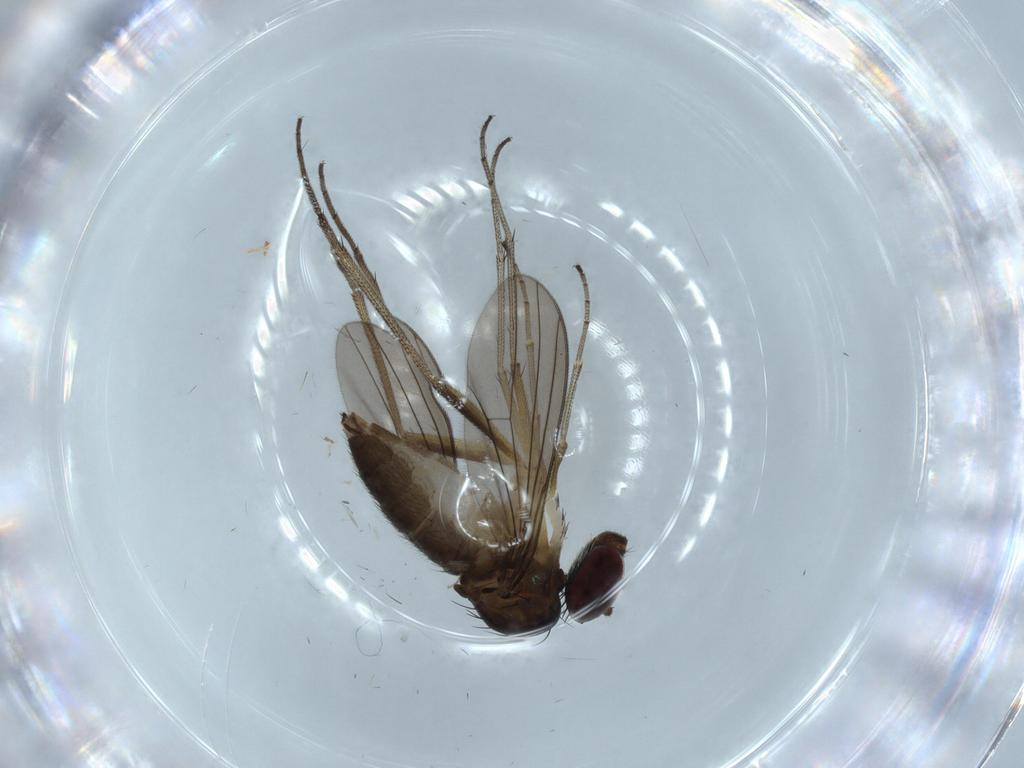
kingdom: Animalia
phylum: Arthropoda
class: Insecta
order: Diptera
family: Dolichopodidae
